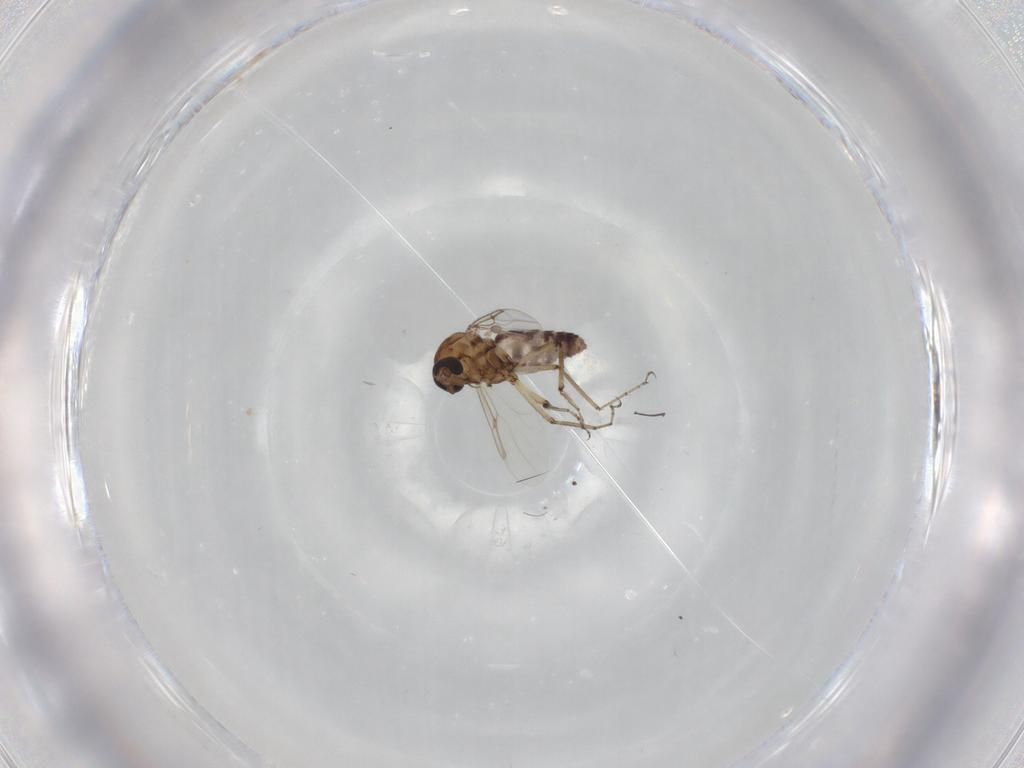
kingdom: Animalia
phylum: Arthropoda
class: Insecta
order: Diptera
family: Ceratopogonidae
